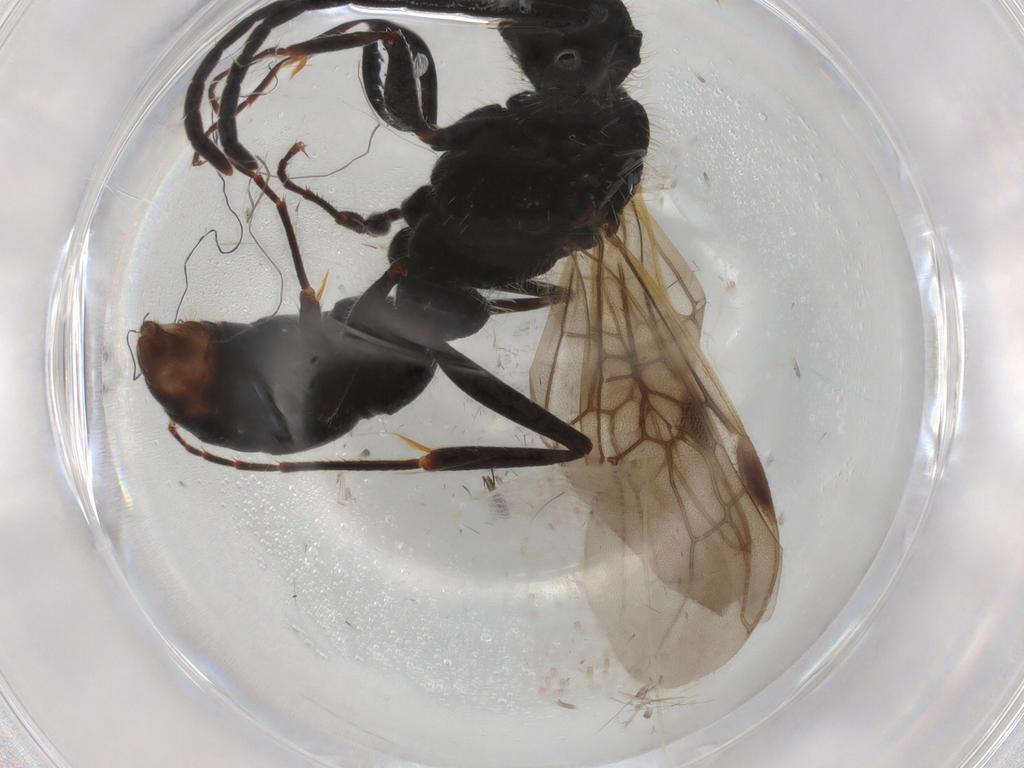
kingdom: Animalia
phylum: Arthropoda
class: Insecta
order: Hymenoptera
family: Formicidae
